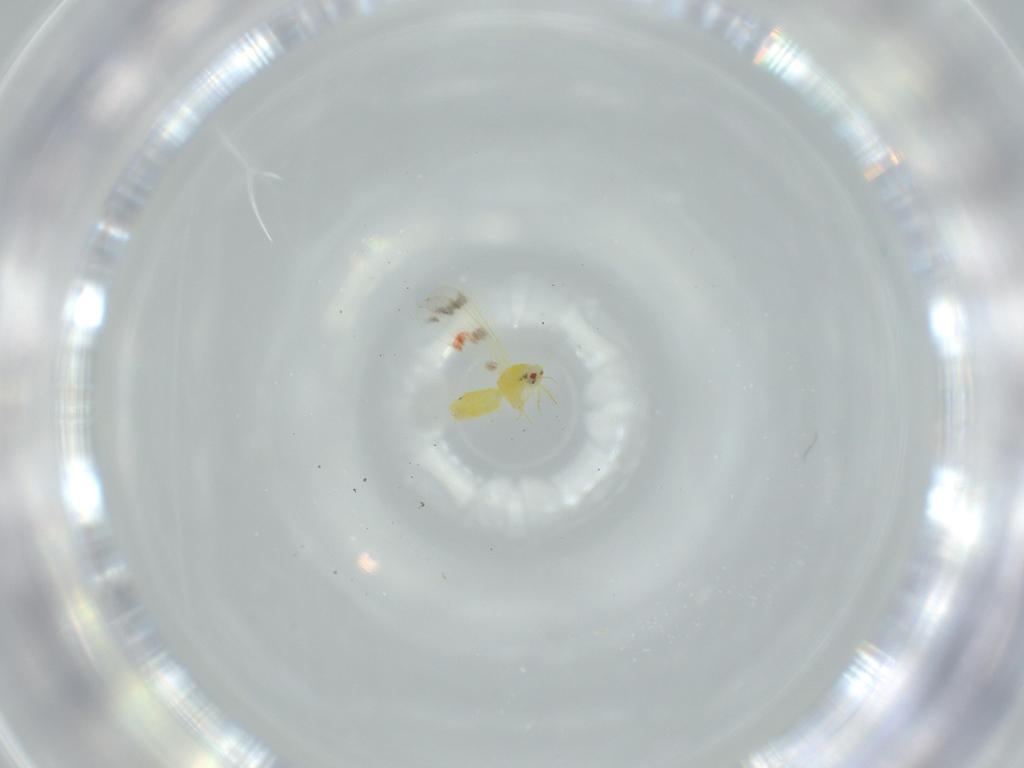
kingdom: Animalia
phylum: Arthropoda
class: Insecta
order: Hemiptera
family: Aleyrodidae
